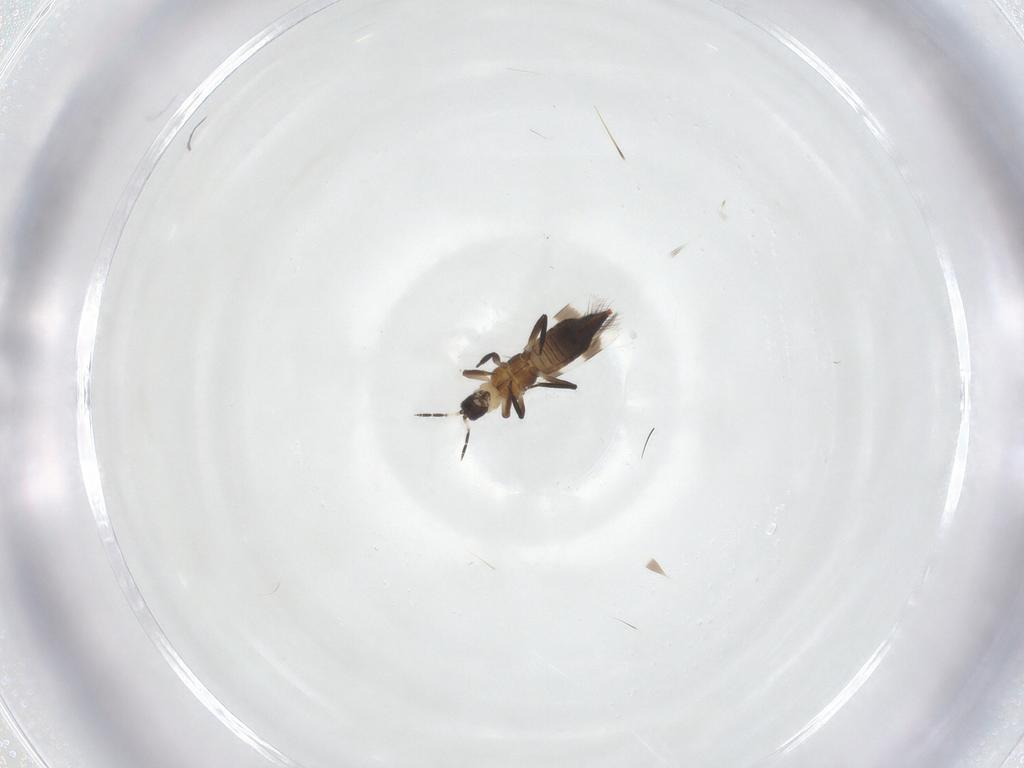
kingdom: Animalia
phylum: Arthropoda
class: Insecta
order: Thysanoptera
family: Aeolothripidae
